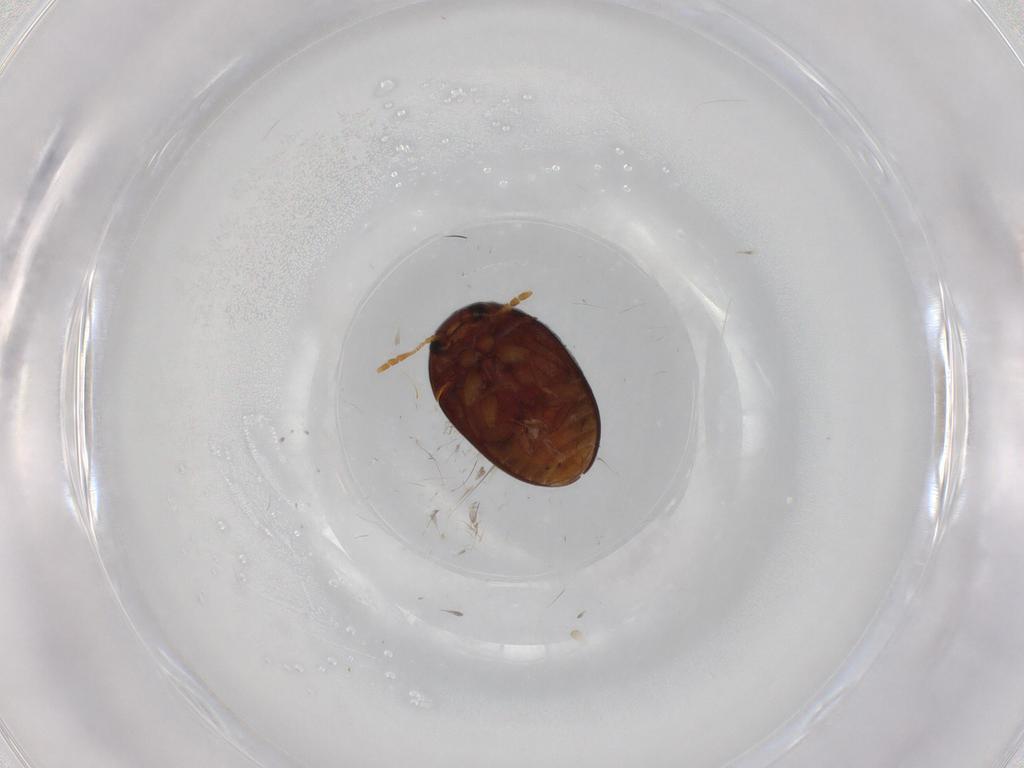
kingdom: Animalia
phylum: Arthropoda
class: Insecta
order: Coleoptera
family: Phalacridae
